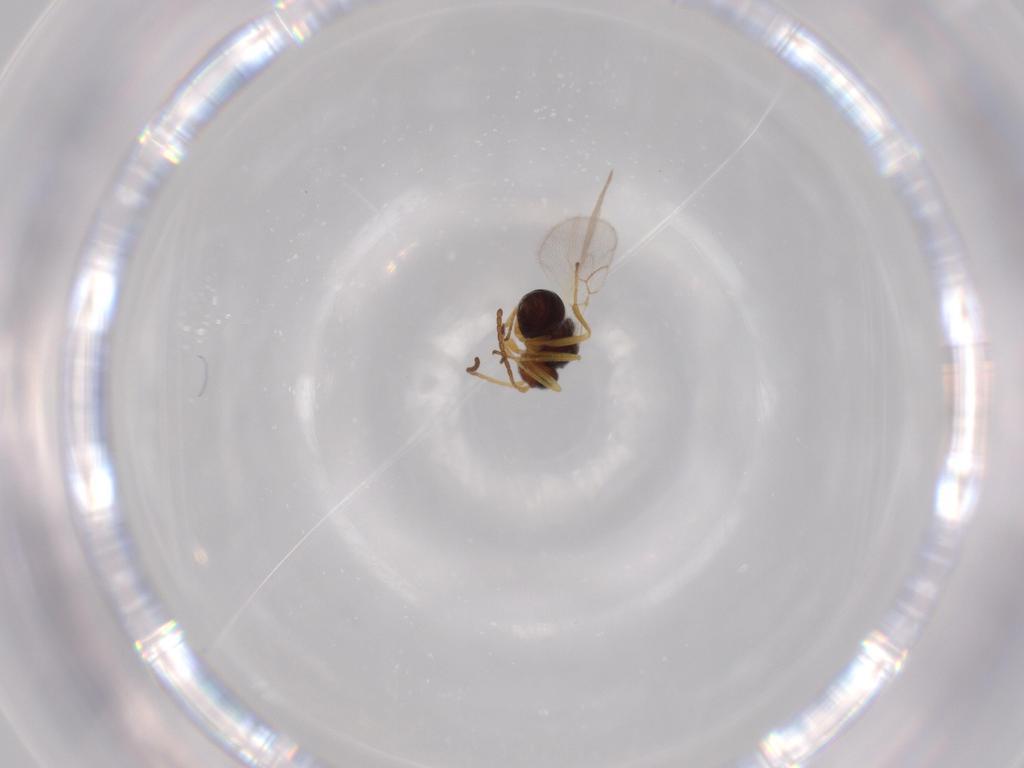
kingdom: Animalia
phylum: Arthropoda
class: Insecta
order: Hymenoptera
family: Figitidae
